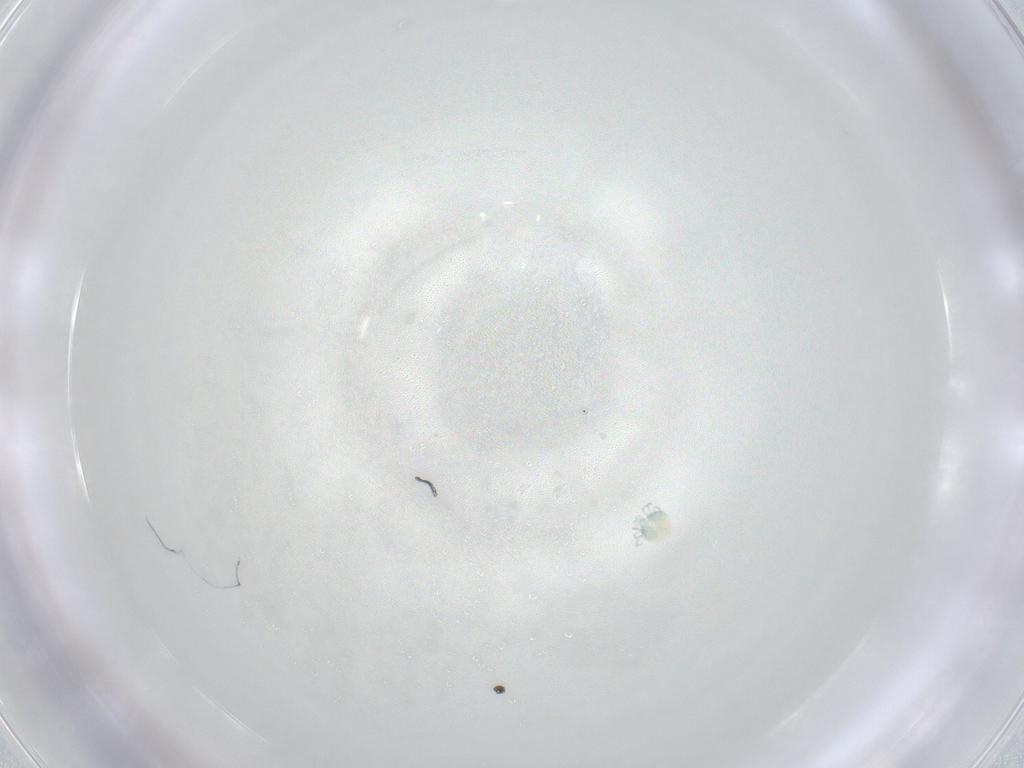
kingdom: Animalia
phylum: Arthropoda
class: Arachnida
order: Trombidiformes
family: Arrenuridae
